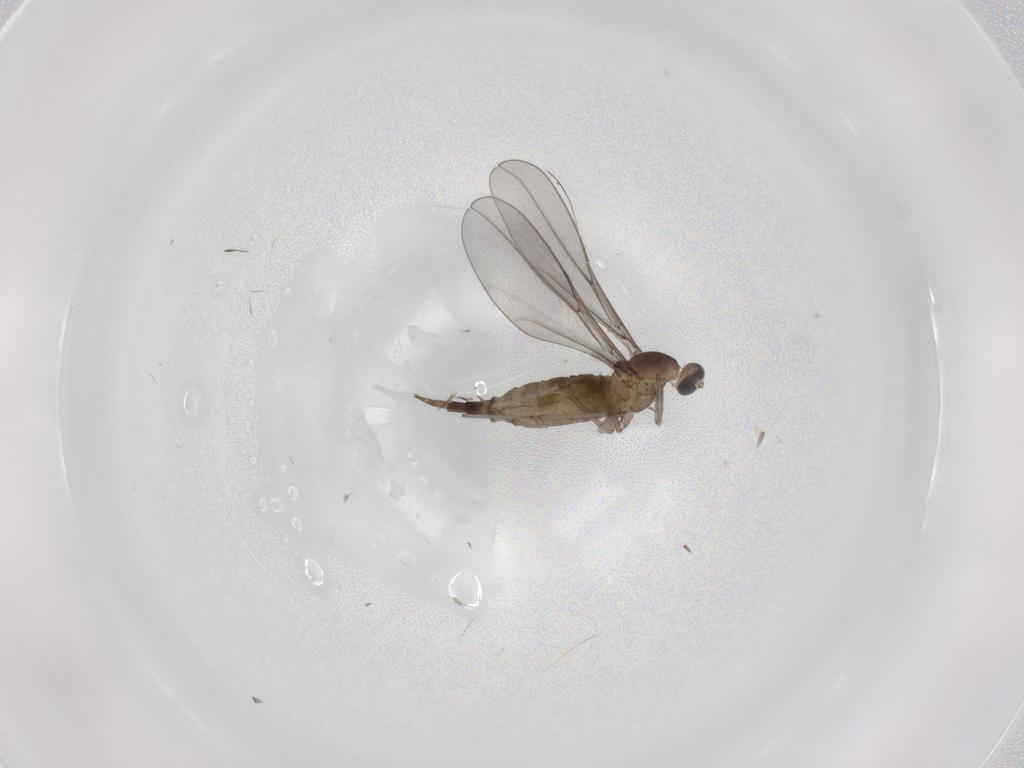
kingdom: Animalia
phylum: Arthropoda
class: Insecta
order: Diptera
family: Cecidomyiidae
